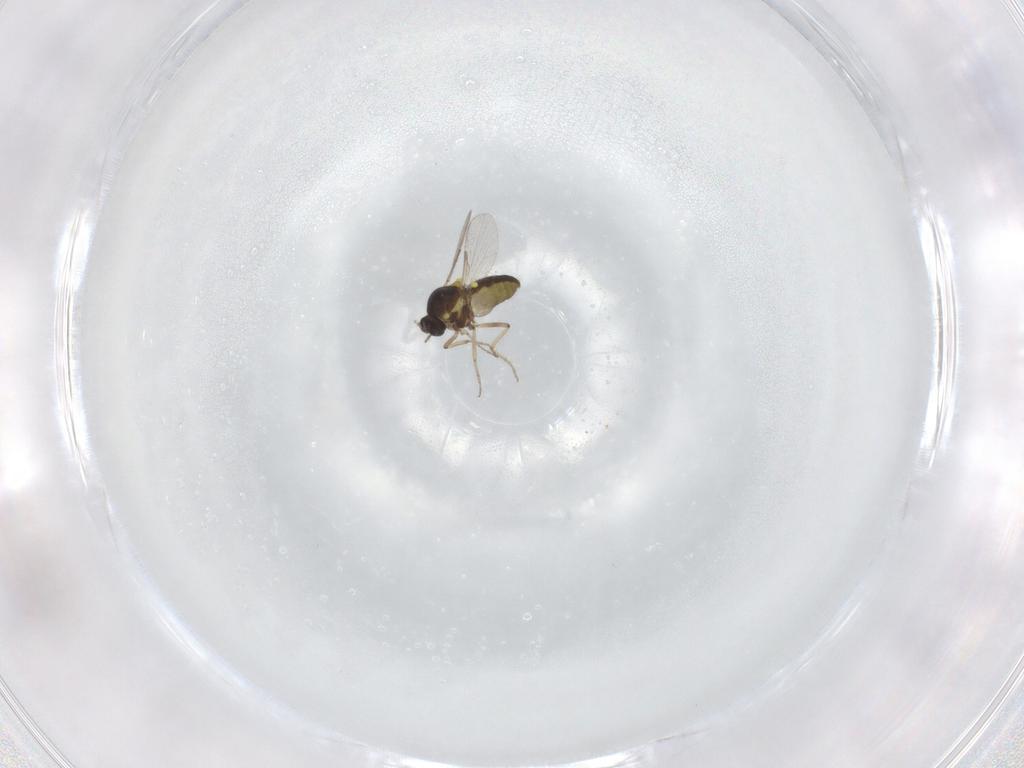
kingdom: Animalia
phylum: Arthropoda
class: Insecta
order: Diptera
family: Ceratopogonidae
